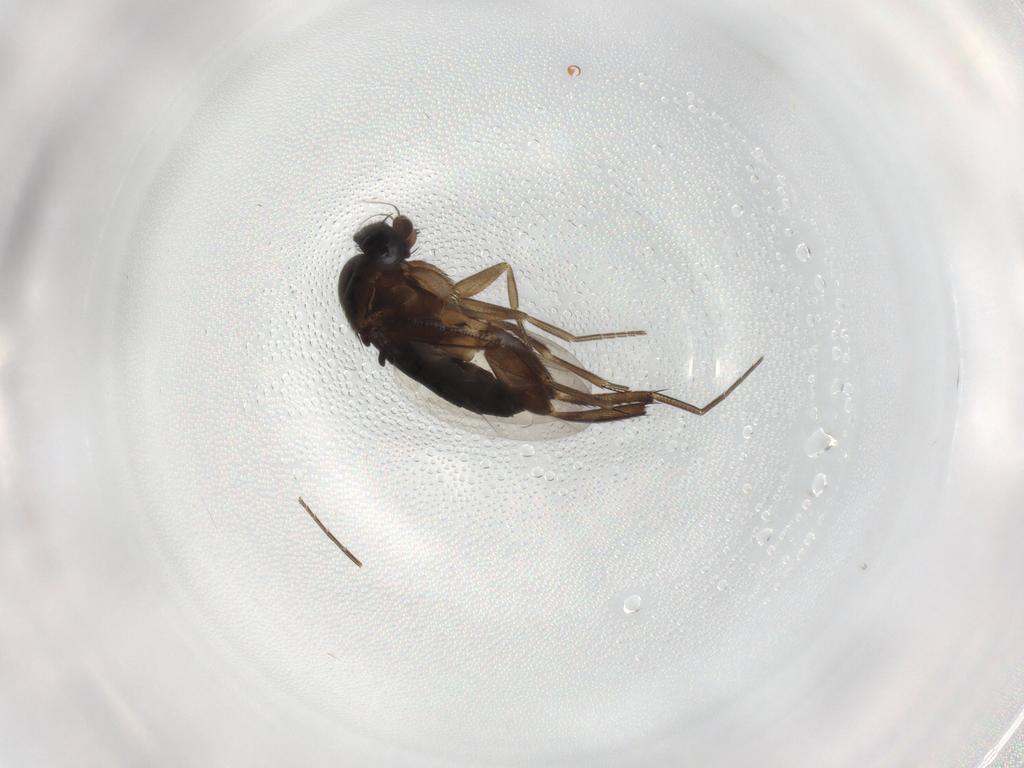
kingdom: Animalia
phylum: Arthropoda
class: Insecta
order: Diptera
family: Phoridae
